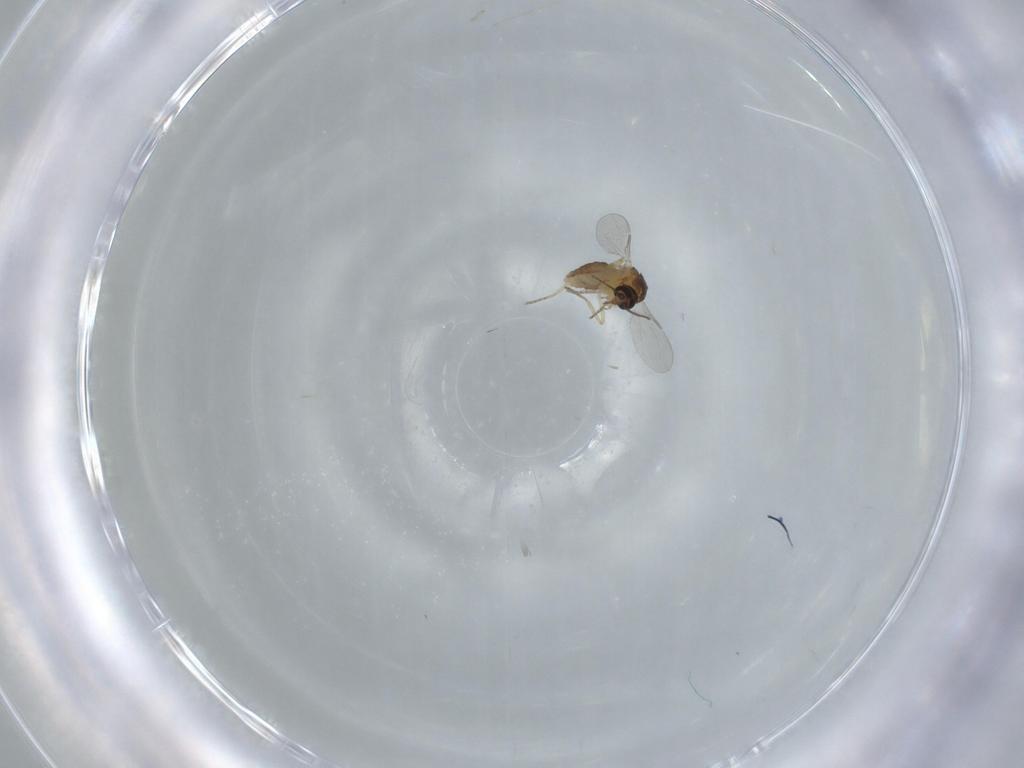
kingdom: Animalia
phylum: Arthropoda
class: Insecta
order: Diptera
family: Ceratopogonidae
